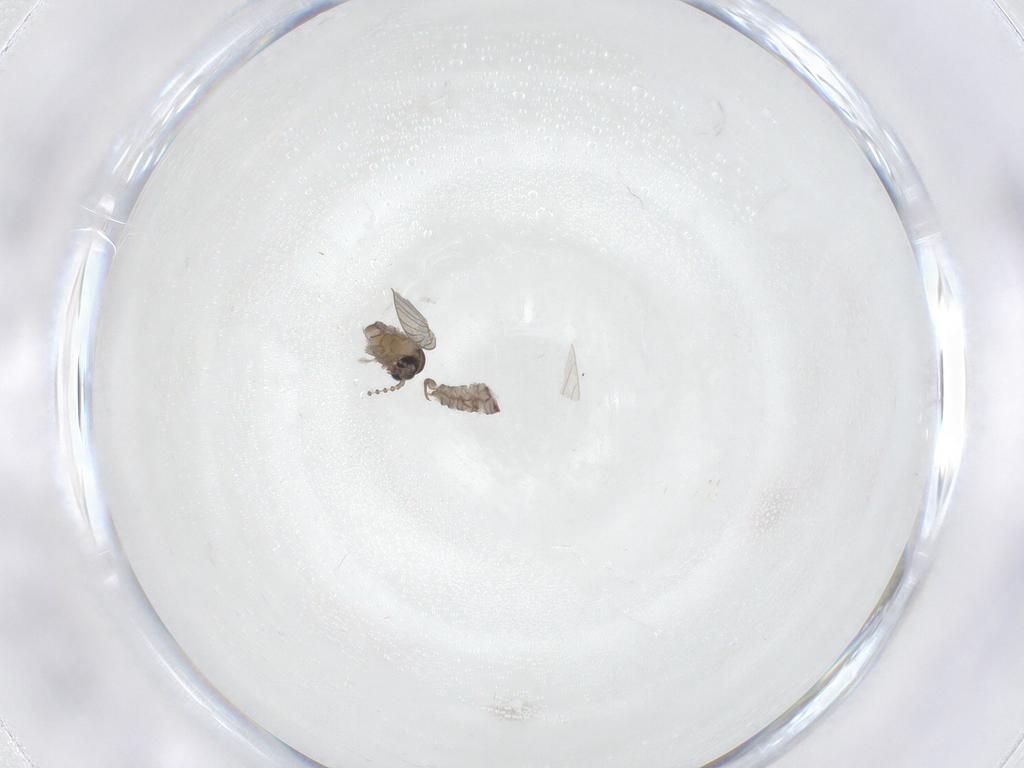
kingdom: Animalia
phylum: Arthropoda
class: Insecta
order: Diptera
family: Psychodidae
